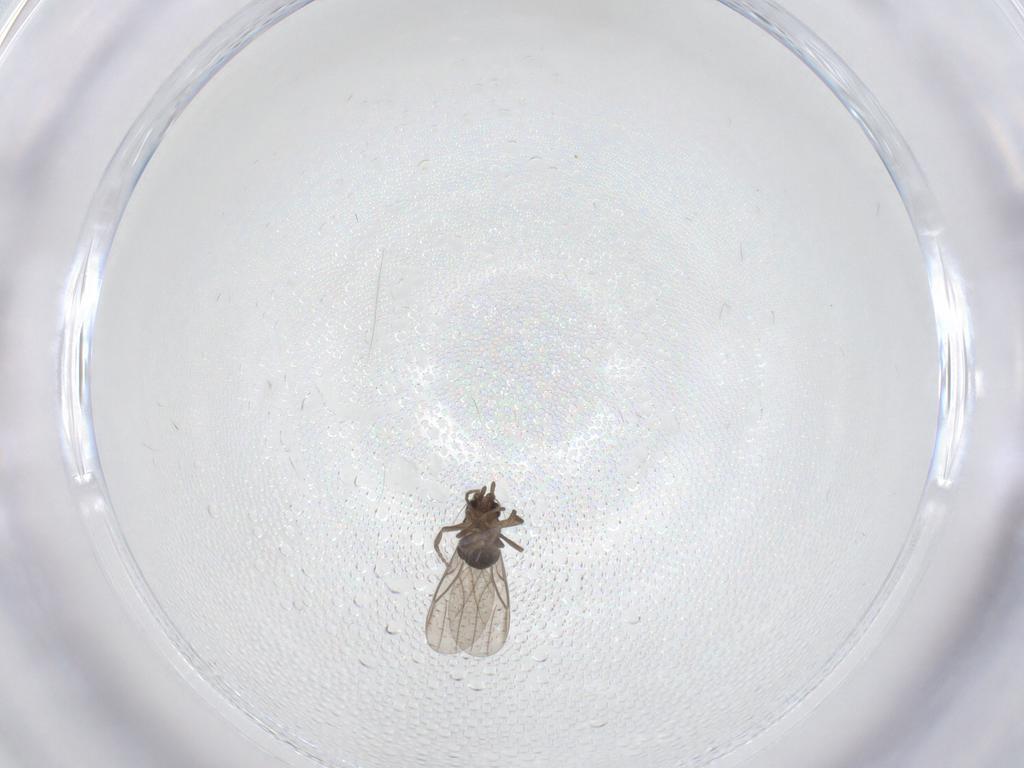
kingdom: Animalia
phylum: Arthropoda
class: Insecta
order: Diptera
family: Phoridae
